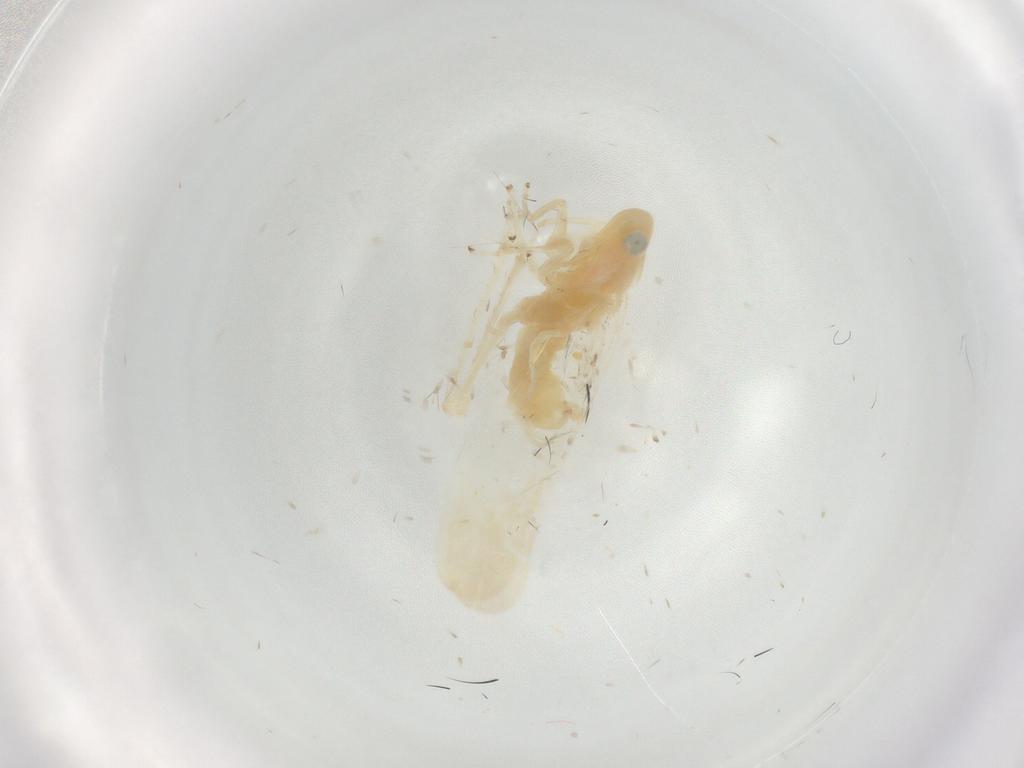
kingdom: Animalia
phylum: Arthropoda
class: Insecta
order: Hemiptera
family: Cicadellidae
